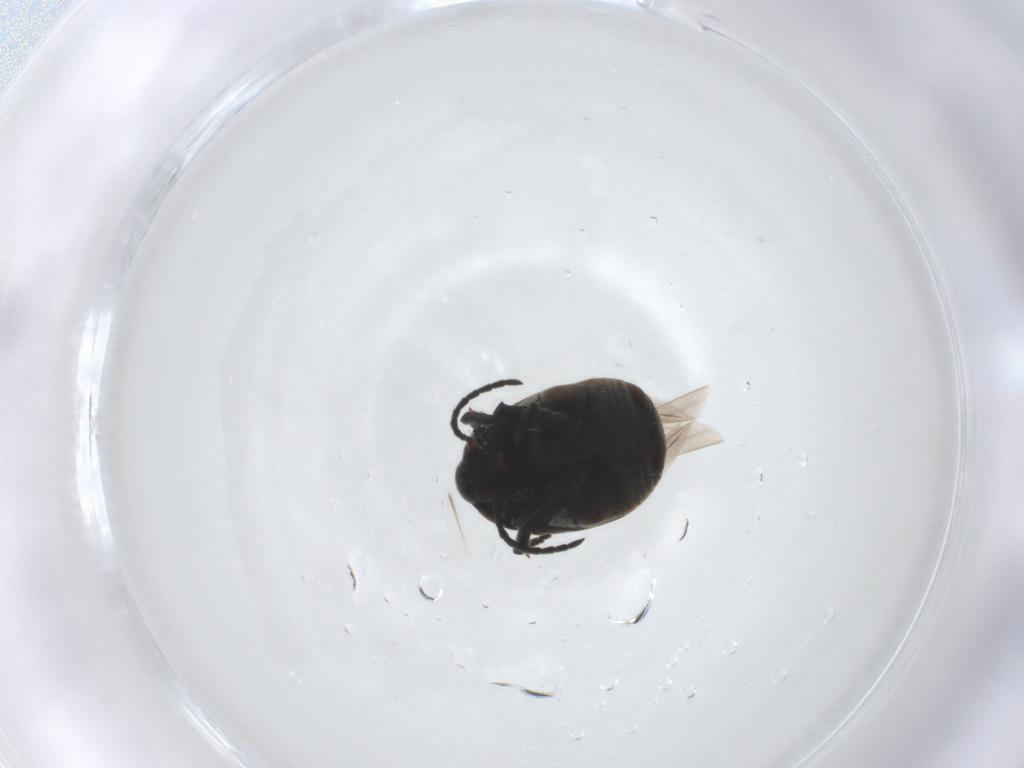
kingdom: Animalia
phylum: Arthropoda
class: Insecta
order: Coleoptera
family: Chrysomelidae
